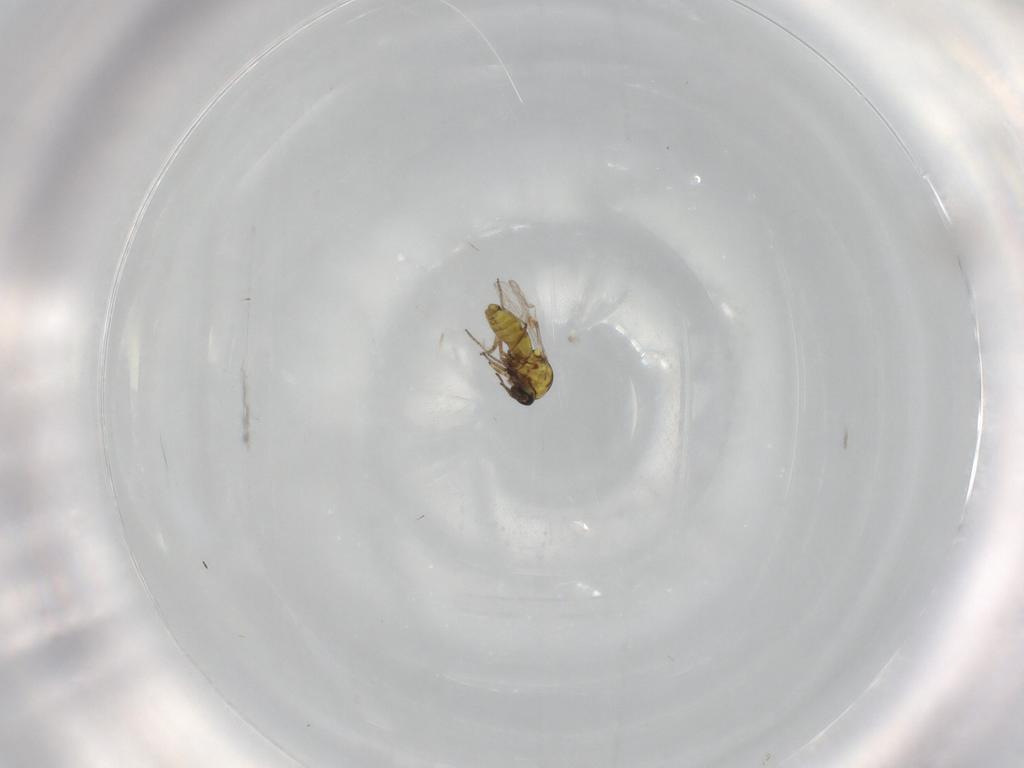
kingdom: Animalia
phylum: Arthropoda
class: Insecta
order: Diptera
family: Ceratopogonidae
